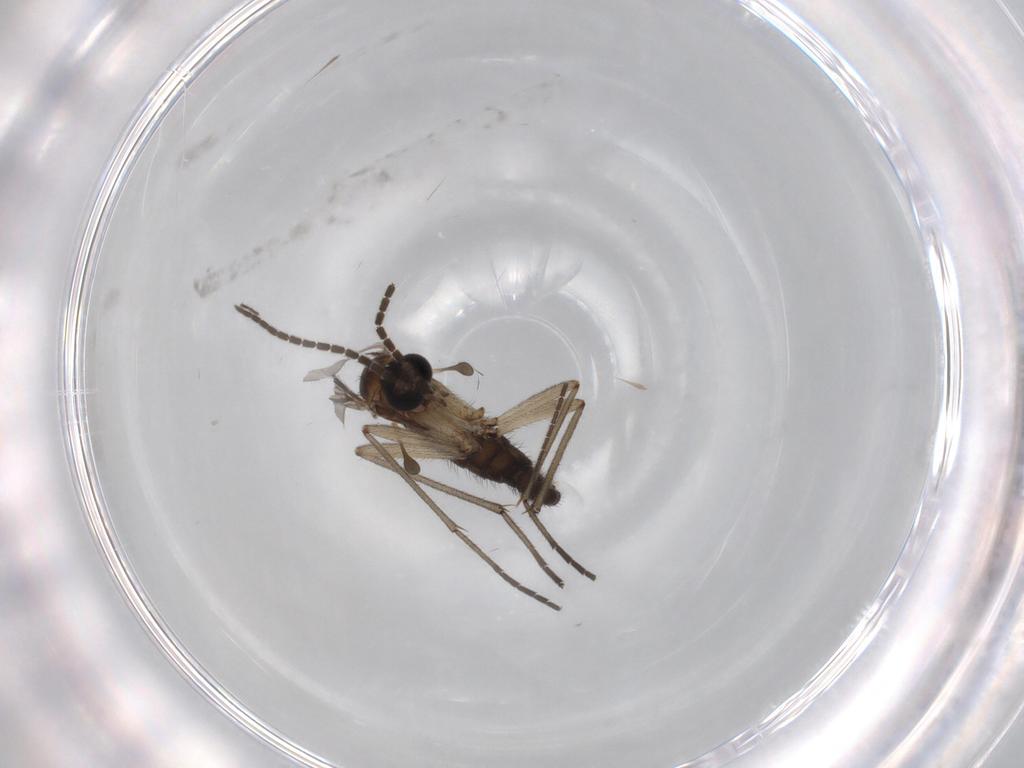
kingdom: Animalia
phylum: Arthropoda
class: Insecta
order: Diptera
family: Sciaridae
